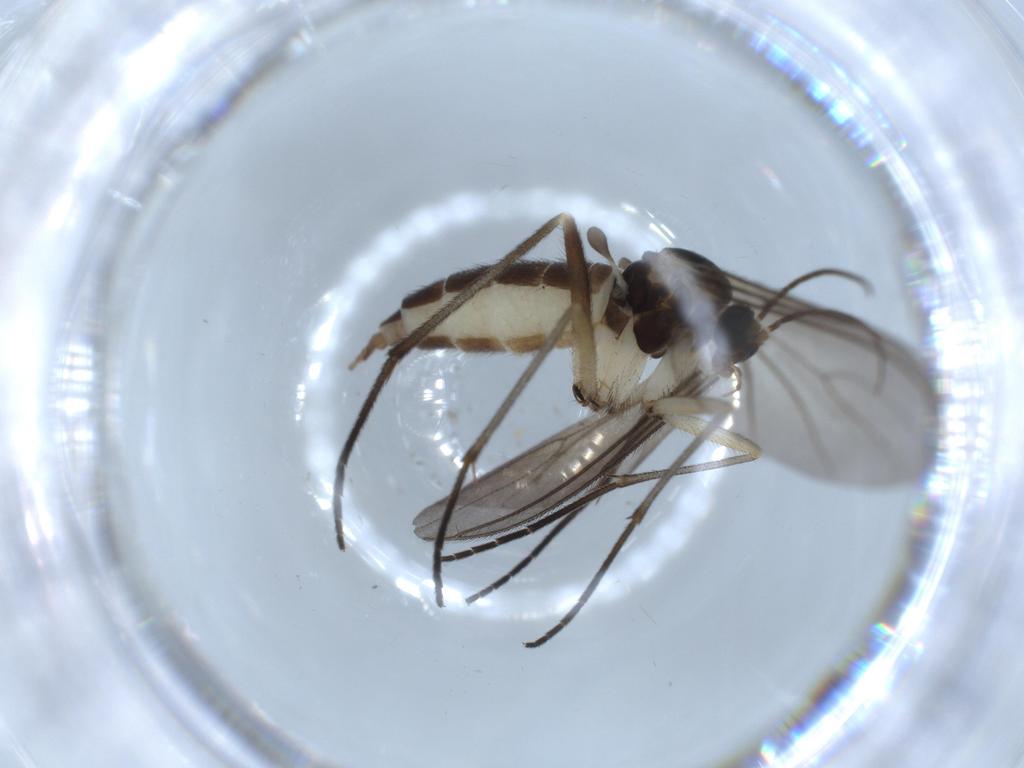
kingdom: Animalia
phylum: Arthropoda
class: Insecta
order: Diptera
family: Sciaridae
